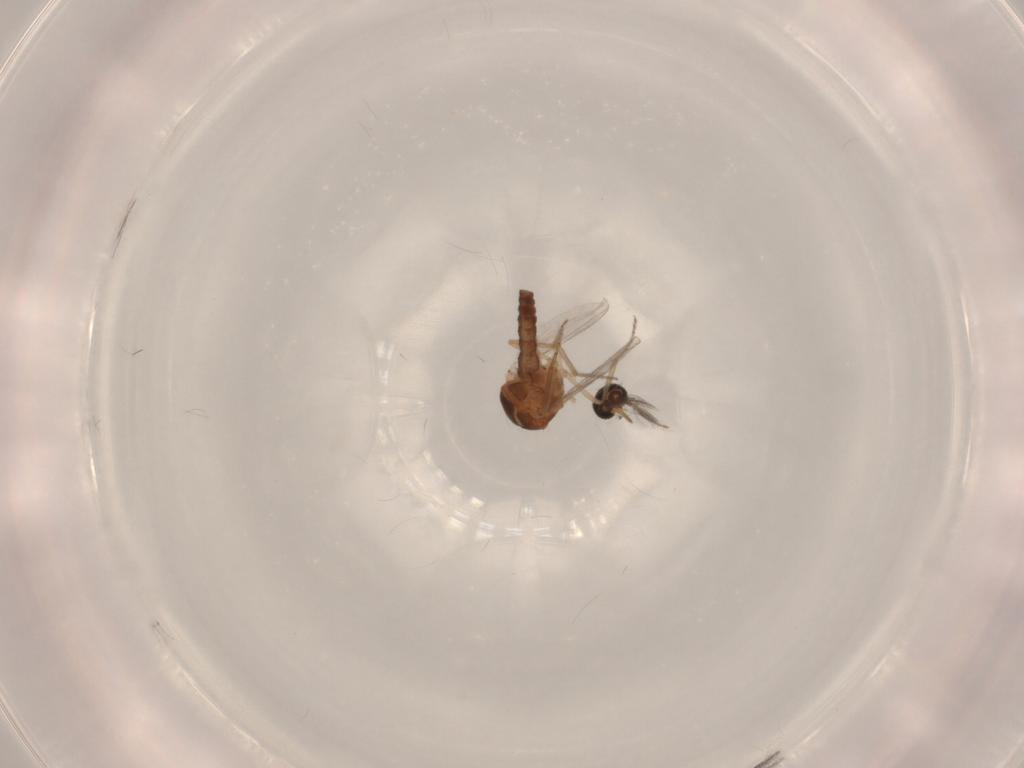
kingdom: Animalia
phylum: Arthropoda
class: Insecta
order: Diptera
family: Ceratopogonidae
